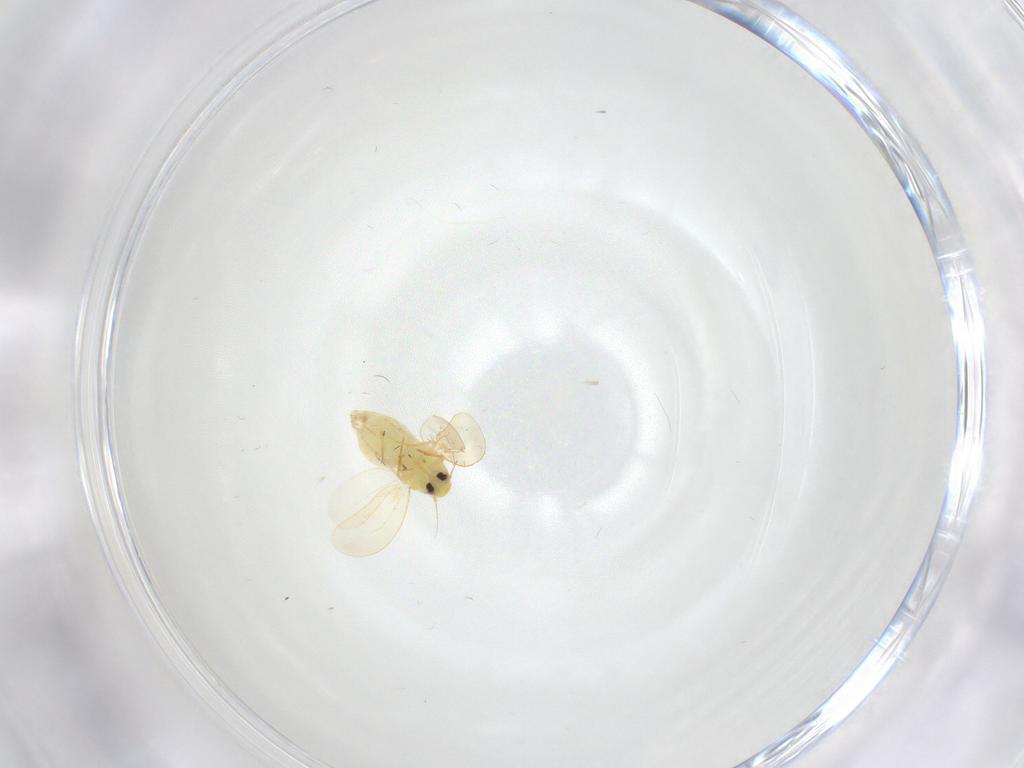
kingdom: Animalia
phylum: Arthropoda
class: Insecta
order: Hemiptera
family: Aleyrodidae
